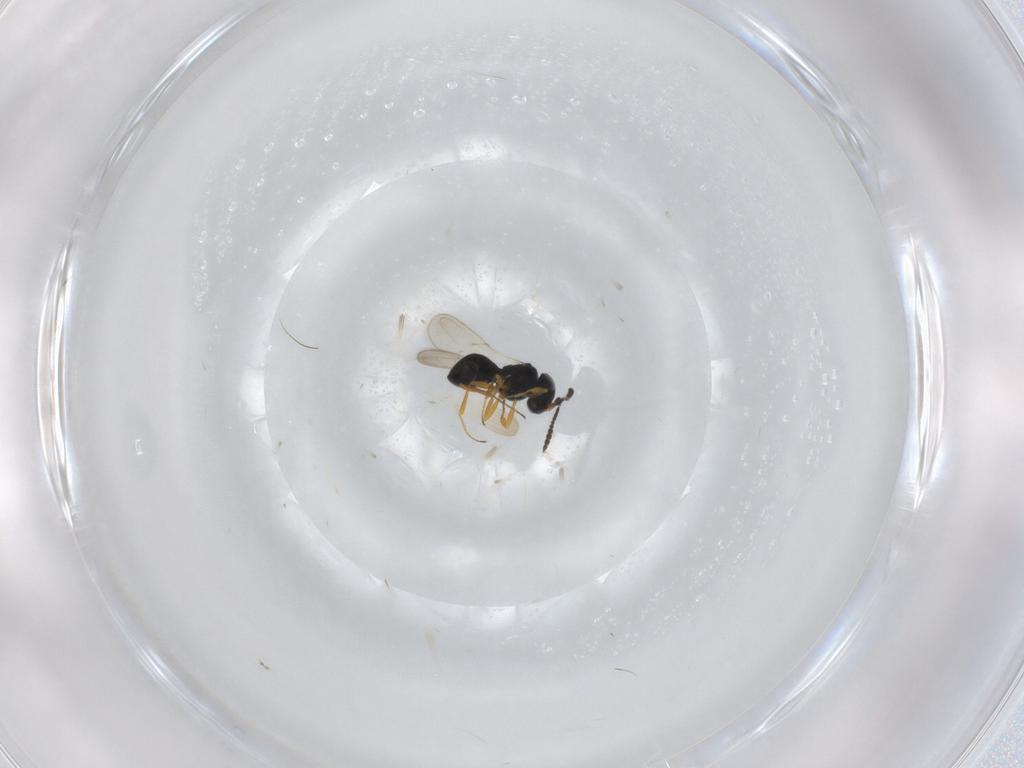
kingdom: Animalia
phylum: Arthropoda
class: Insecta
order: Hymenoptera
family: Scelionidae
